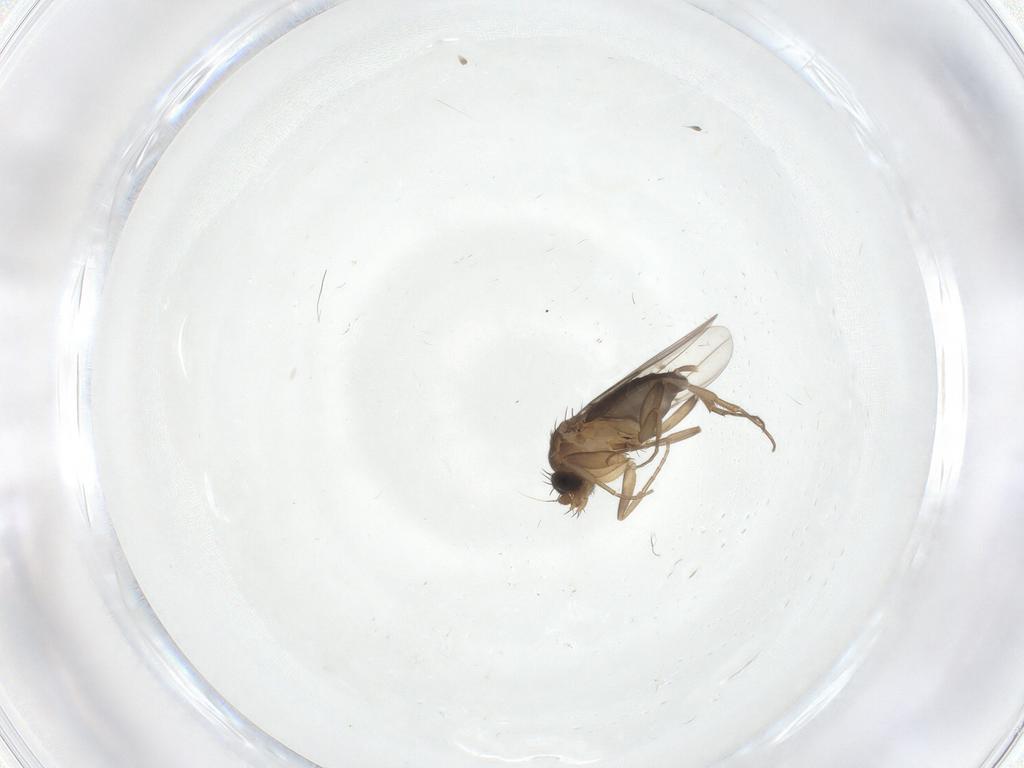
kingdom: Animalia
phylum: Arthropoda
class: Insecta
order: Diptera
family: Phoridae
